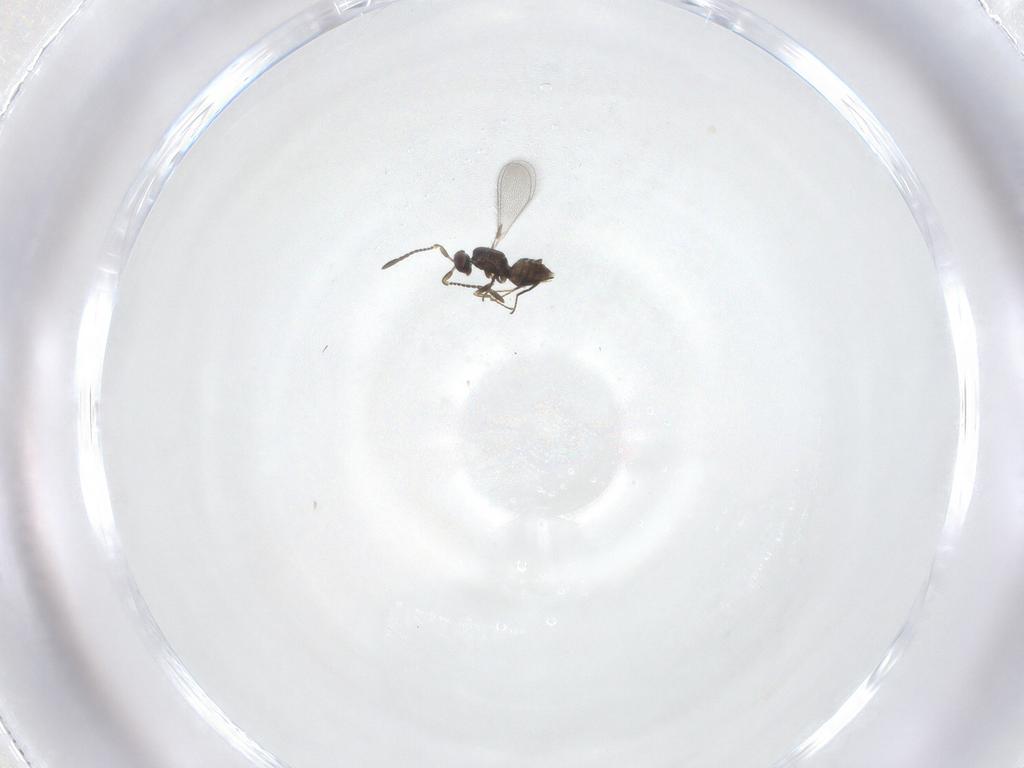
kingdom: Animalia
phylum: Arthropoda
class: Insecta
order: Hymenoptera
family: Mymaridae
